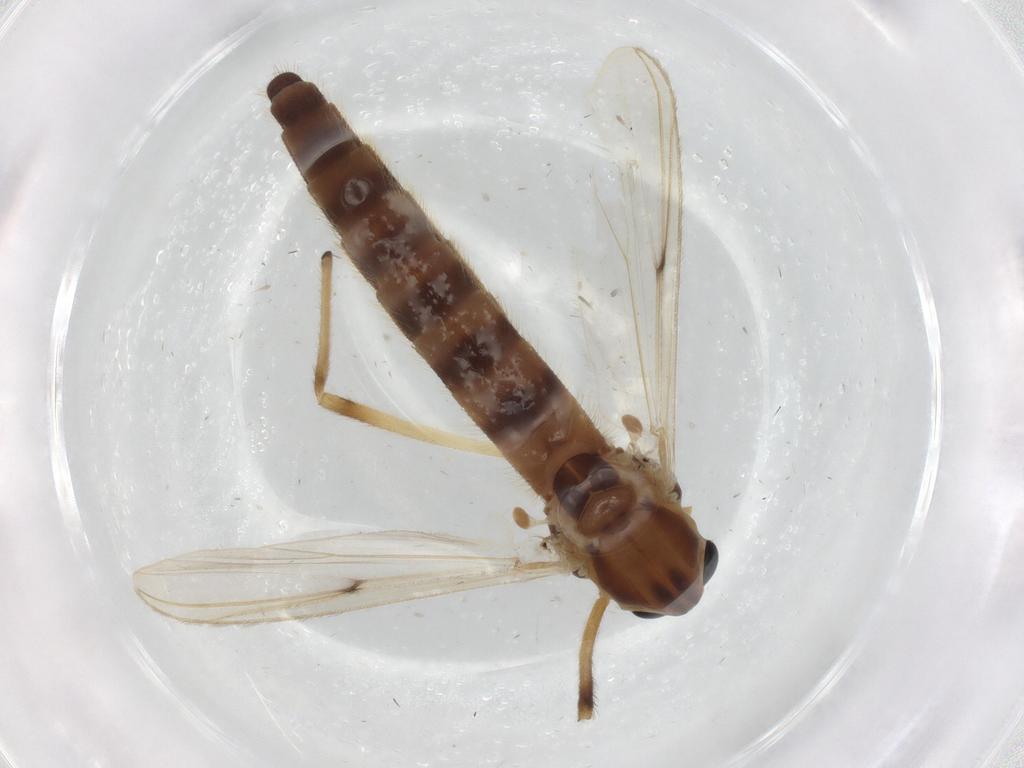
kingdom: Animalia
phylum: Arthropoda
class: Insecta
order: Diptera
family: Chironomidae
